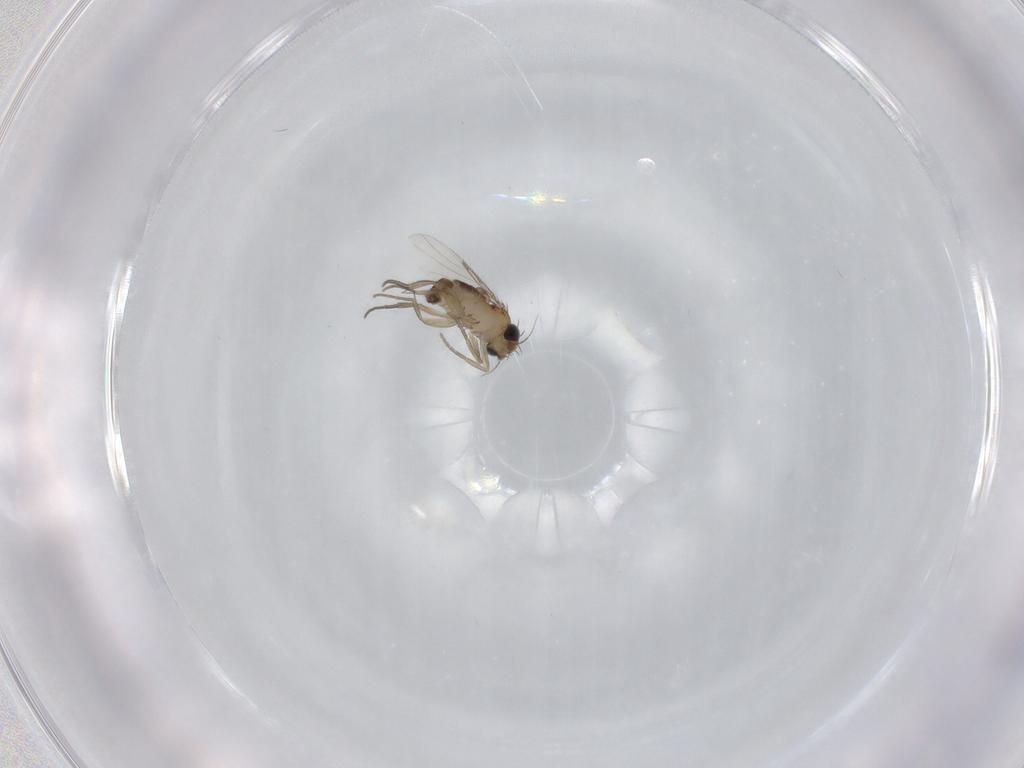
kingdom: Animalia
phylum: Arthropoda
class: Insecta
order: Diptera
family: Phoridae
